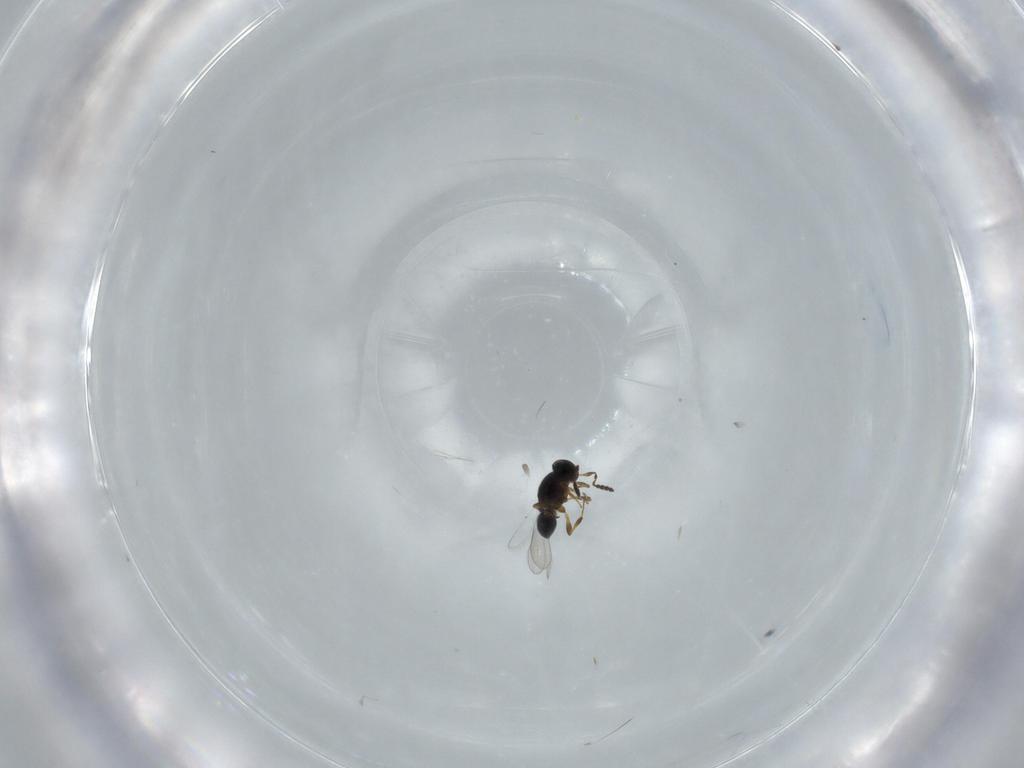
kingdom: Animalia
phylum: Arthropoda
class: Insecta
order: Hymenoptera
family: Platygastridae
